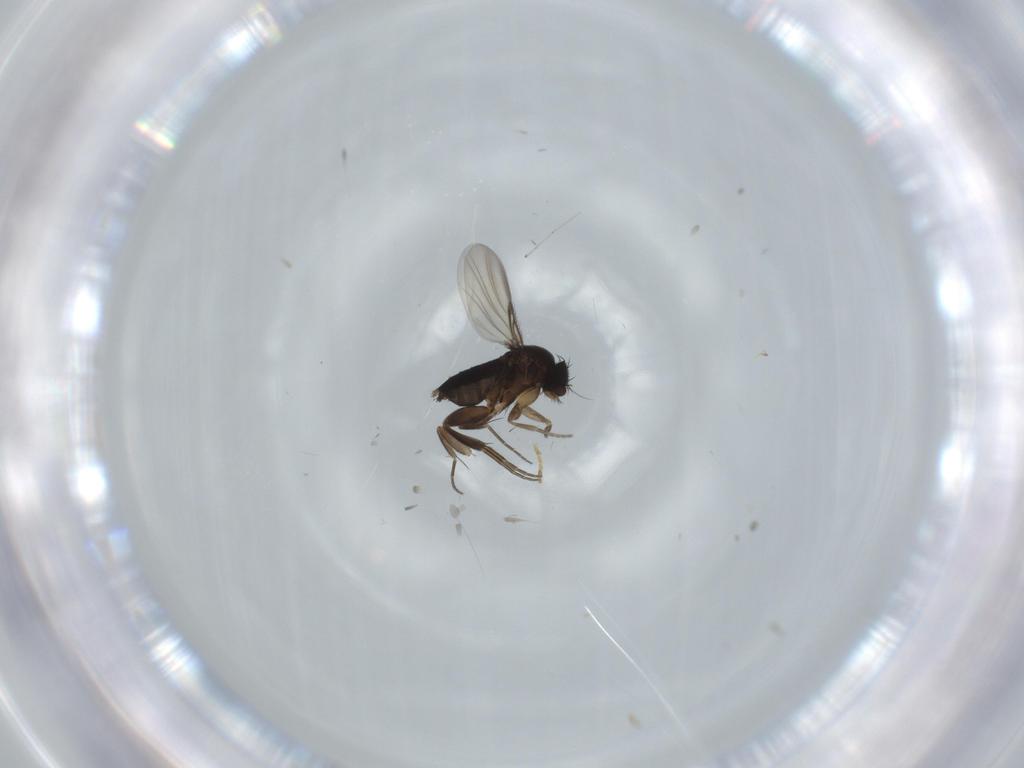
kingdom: Animalia
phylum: Arthropoda
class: Insecta
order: Diptera
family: Phoridae
